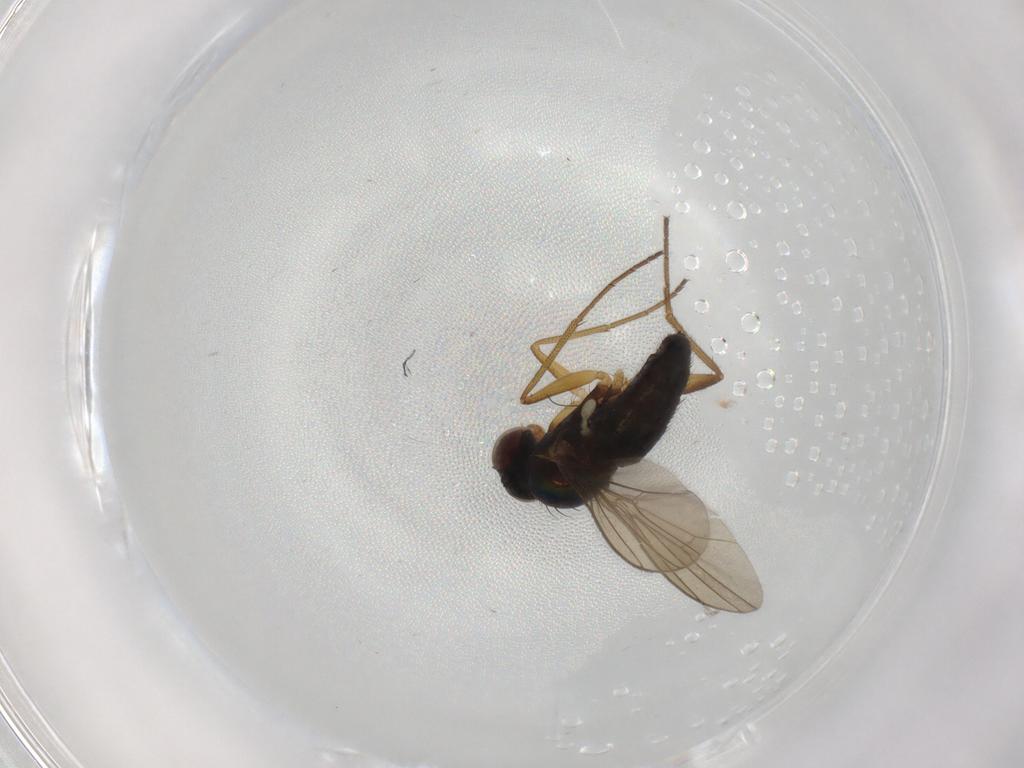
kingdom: Animalia
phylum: Arthropoda
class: Insecta
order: Diptera
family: Dolichopodidae
